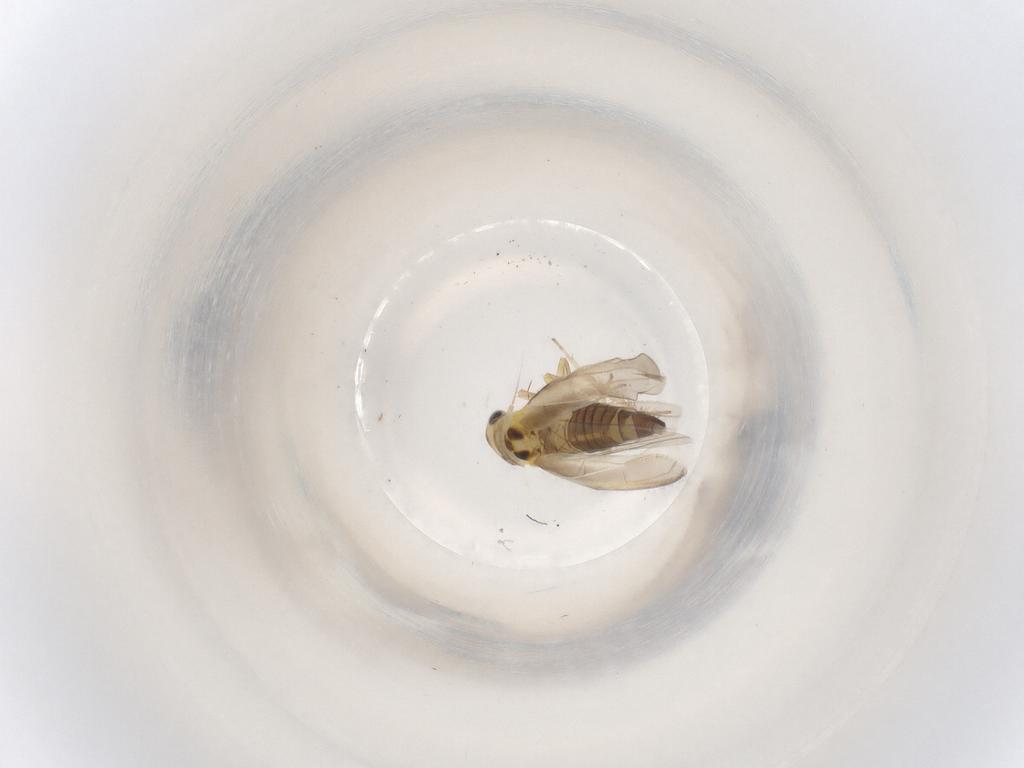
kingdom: Animalia
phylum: Arthropoda
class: Insecta
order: Hemiptera
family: Cicadellidae
